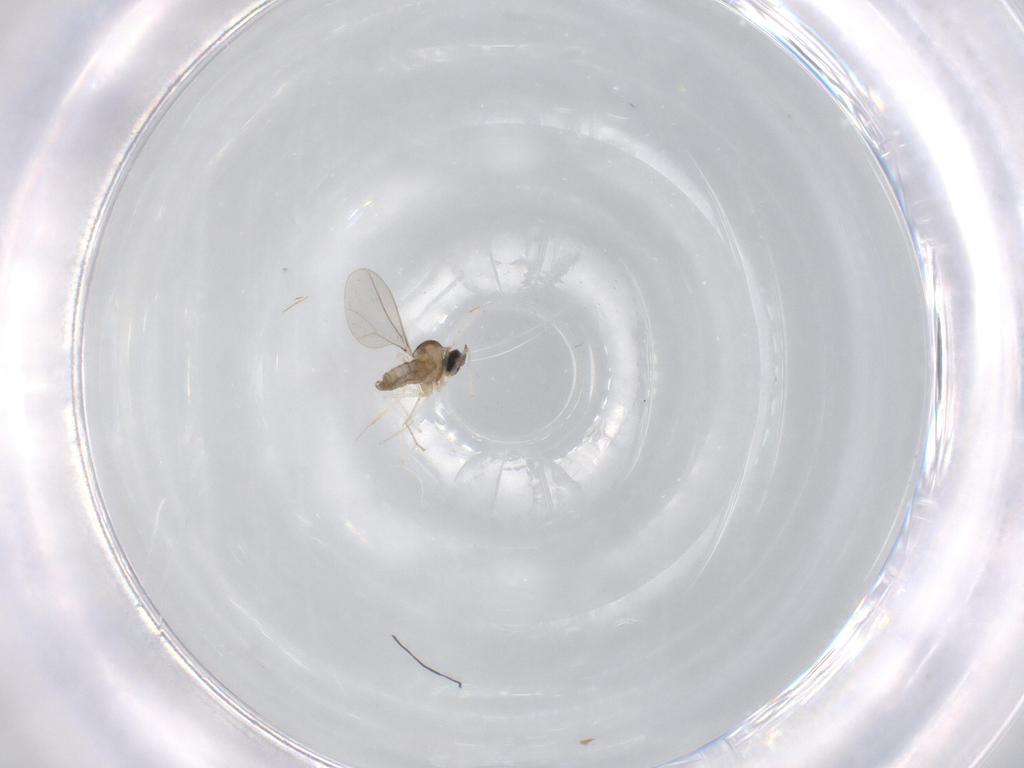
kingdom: Animalia
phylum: Arthropoda
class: Insecta
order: Diptera
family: Cecidomyiidae
